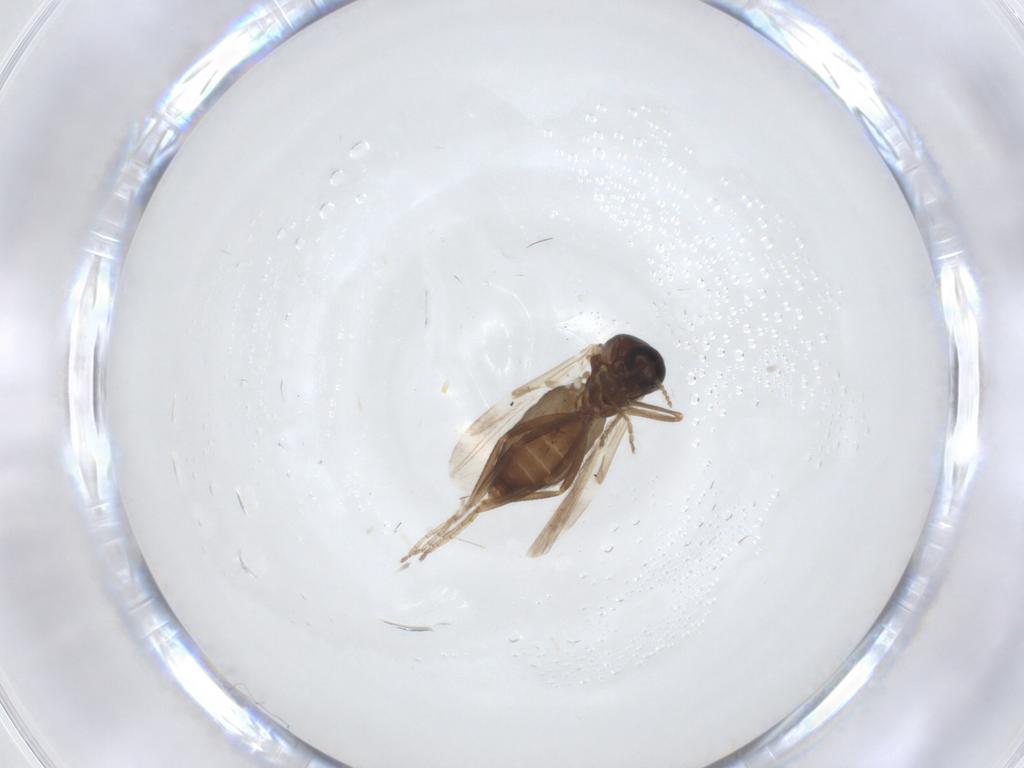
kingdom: Animalia
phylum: Arthropoda
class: Insecta
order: Diptera
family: Ceratopogonidae
